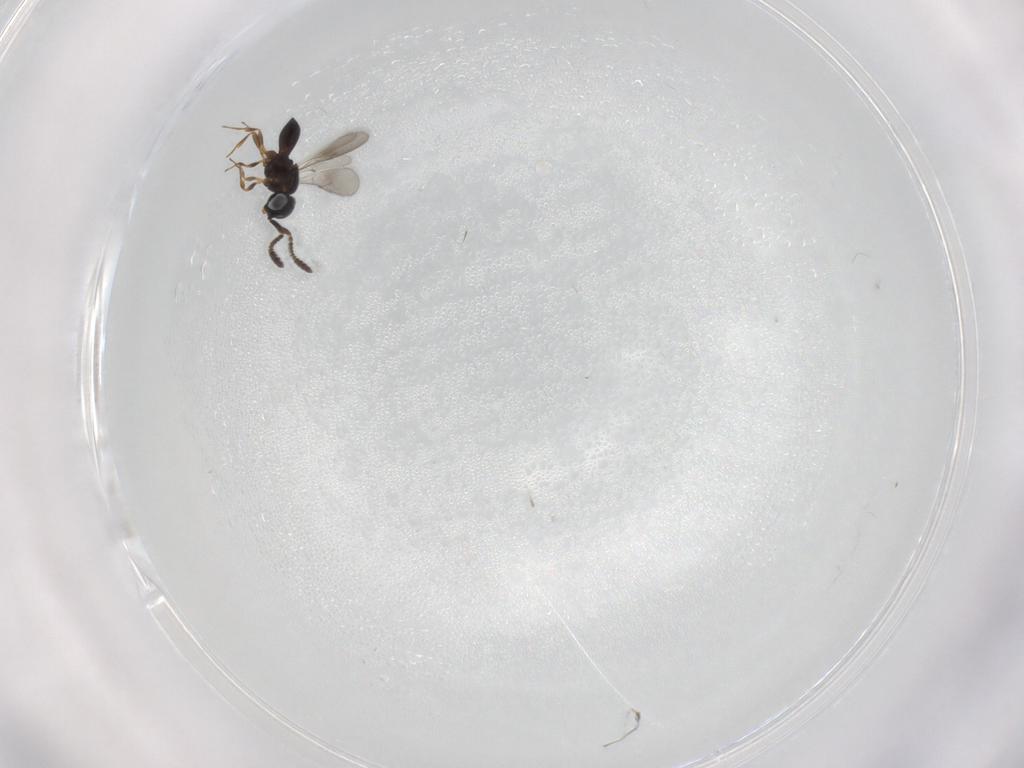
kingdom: Animalia
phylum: Arthropoda
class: Insecta
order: Hymenoptera
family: Scelionidae
